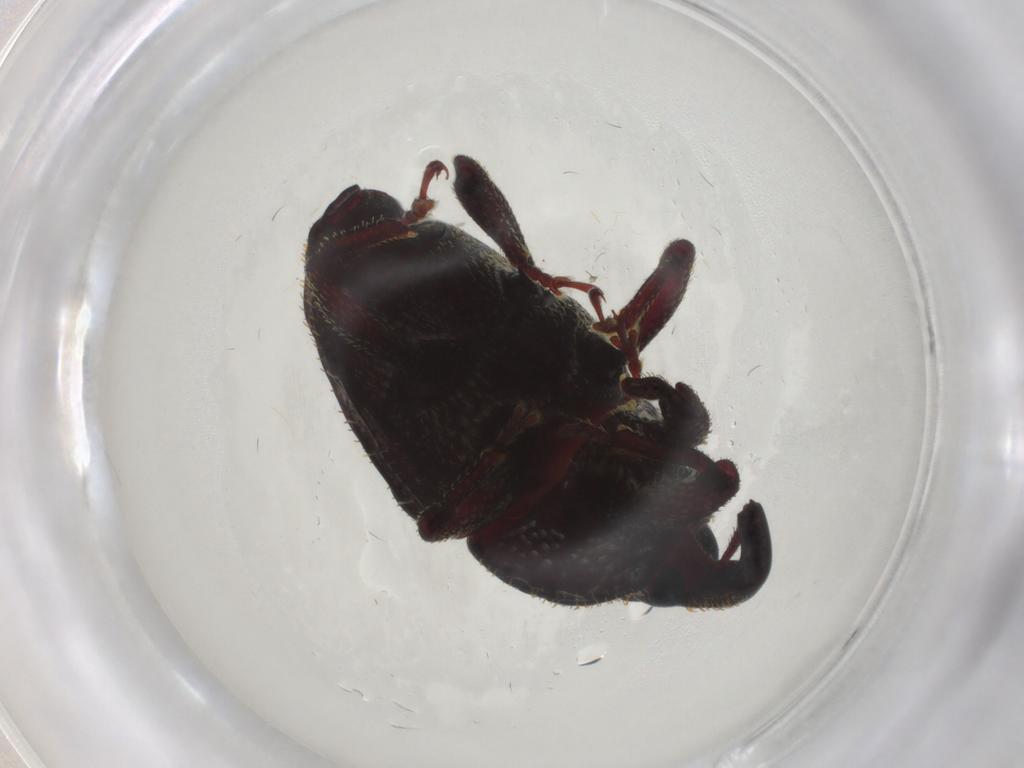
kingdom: Animalia
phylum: Arthropoda
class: Insecta
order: Coleoptera
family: Curculionidae
